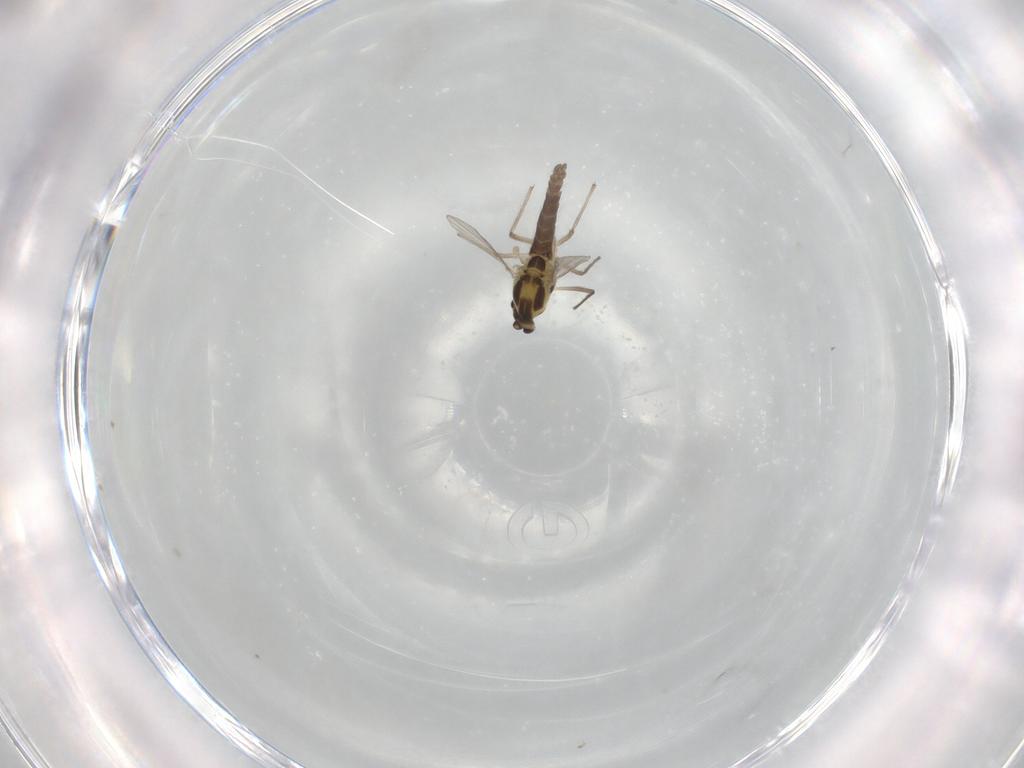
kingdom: Animalia
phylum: Arthropoda
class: Insecta
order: Diptera
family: Chironomidae
